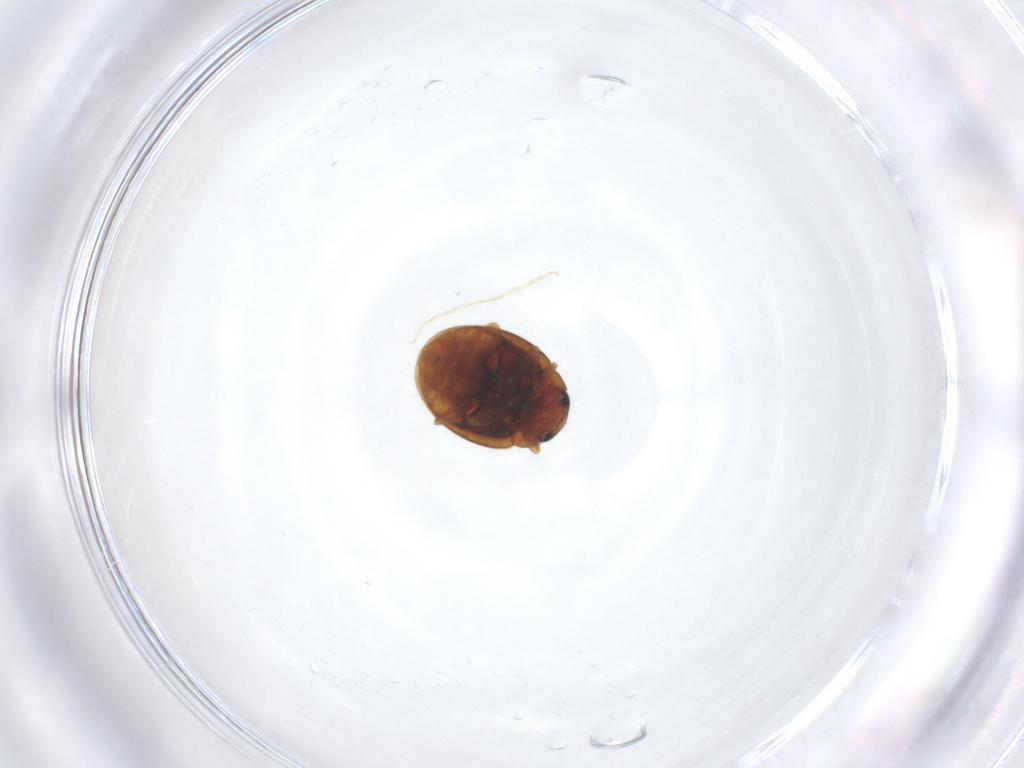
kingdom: Animalia
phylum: Arthropoda
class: Insecta
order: Coleoptera
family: Coccinellidae
